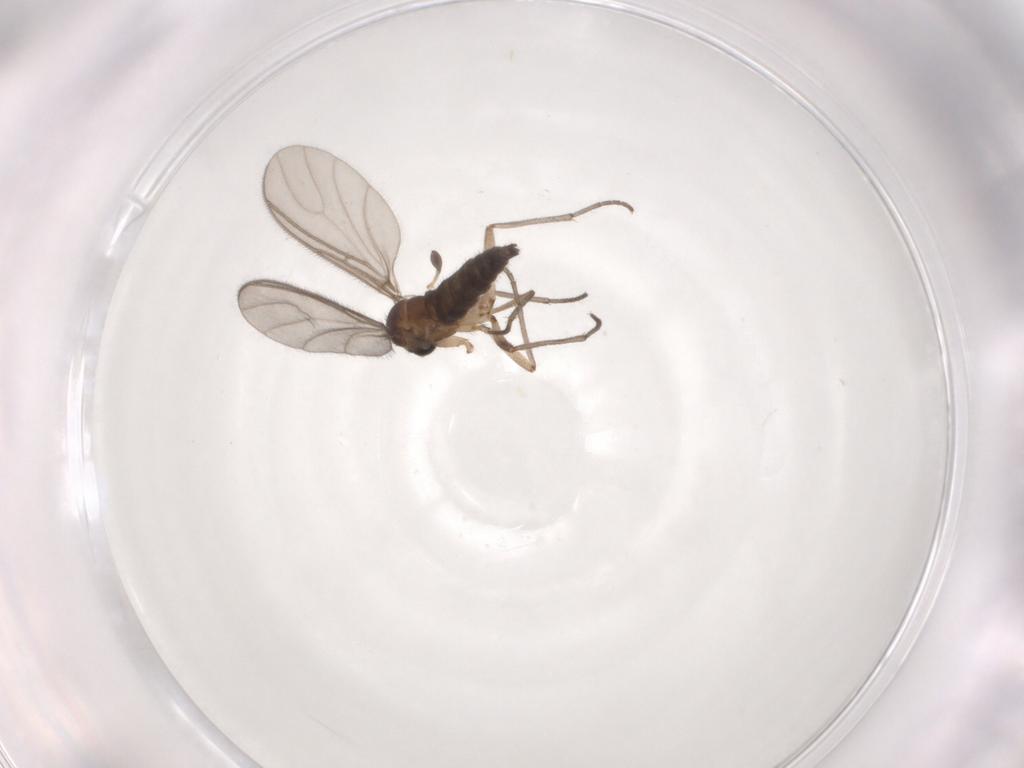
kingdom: Animalia
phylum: Arthropoda
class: Insecta
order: Diptera
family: Sciaridae
